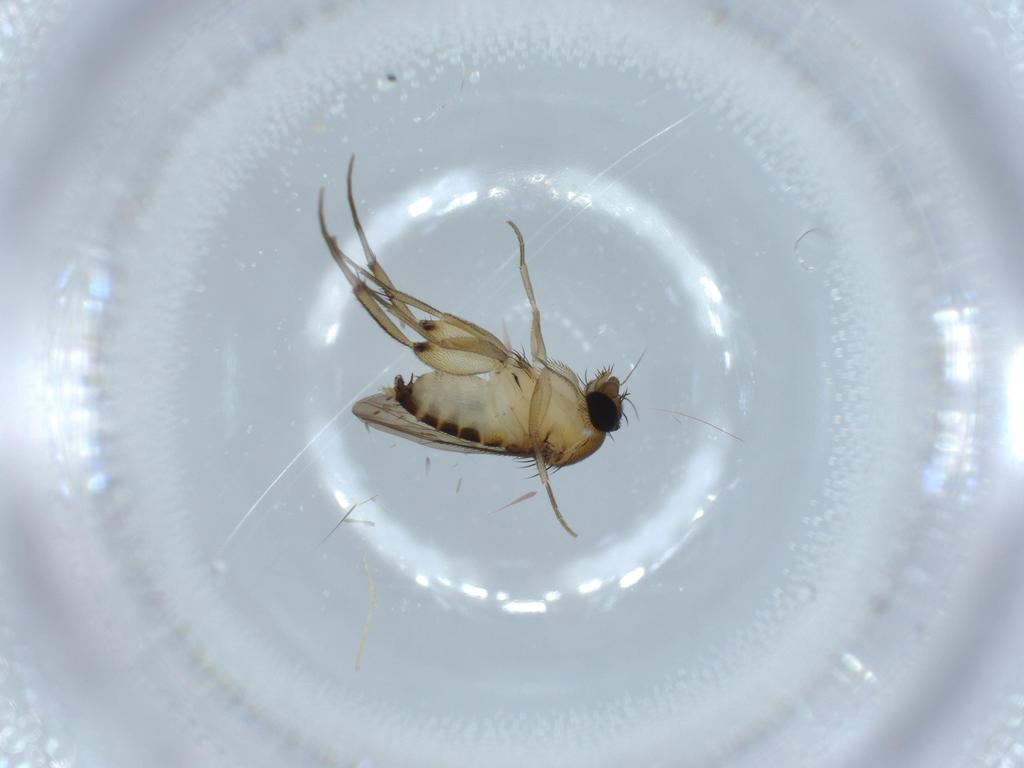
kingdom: Animalia
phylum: Arthropoda
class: Insecta
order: Diptera
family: Phoridae
